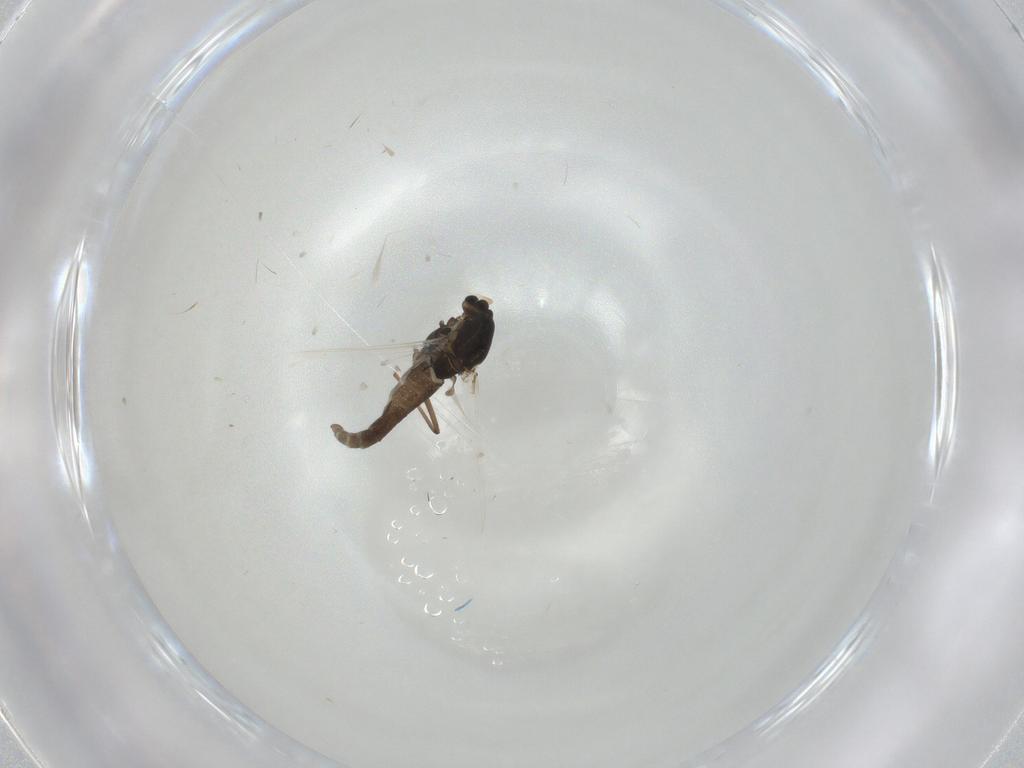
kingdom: Animalia
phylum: Arthropoda
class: Insecta
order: Diptera
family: Chironomidae
